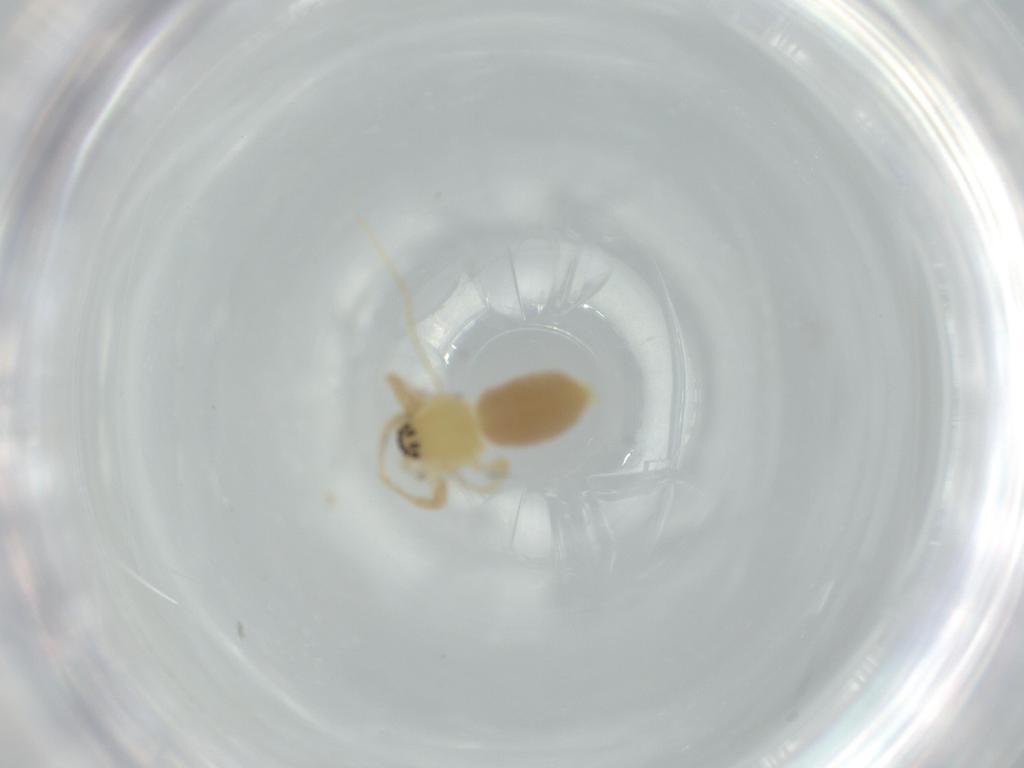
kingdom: Animalia
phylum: Arthropoda
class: Arachnida
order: Araneae
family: Anyphaenidae
